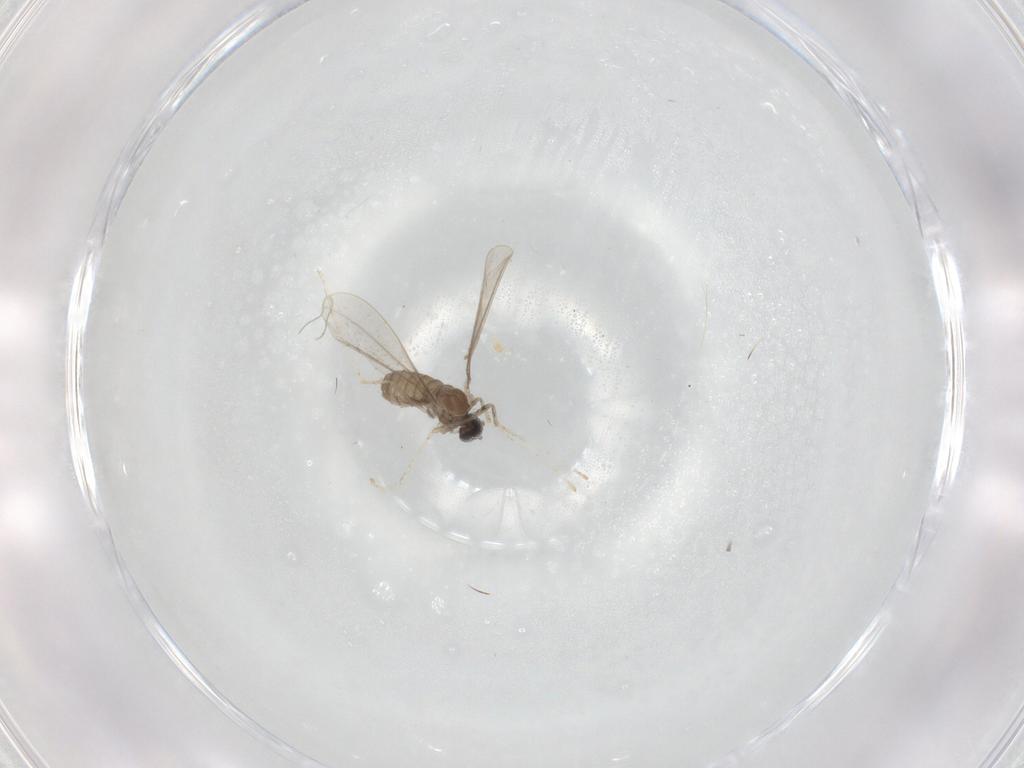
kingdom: Animalia
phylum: Arthropoda
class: Insecta
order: Diptera
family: Cecidomyiidae
